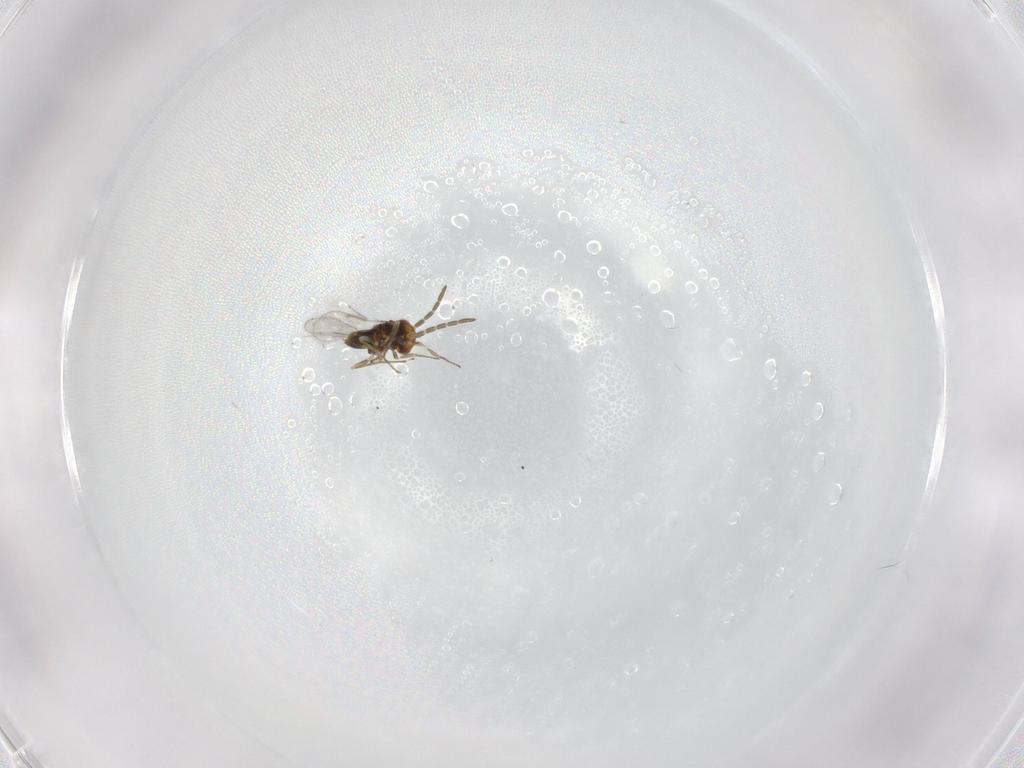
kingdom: Animalia
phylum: Arthropoda
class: Insecta
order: Hymenoptera
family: Aphelinidae
